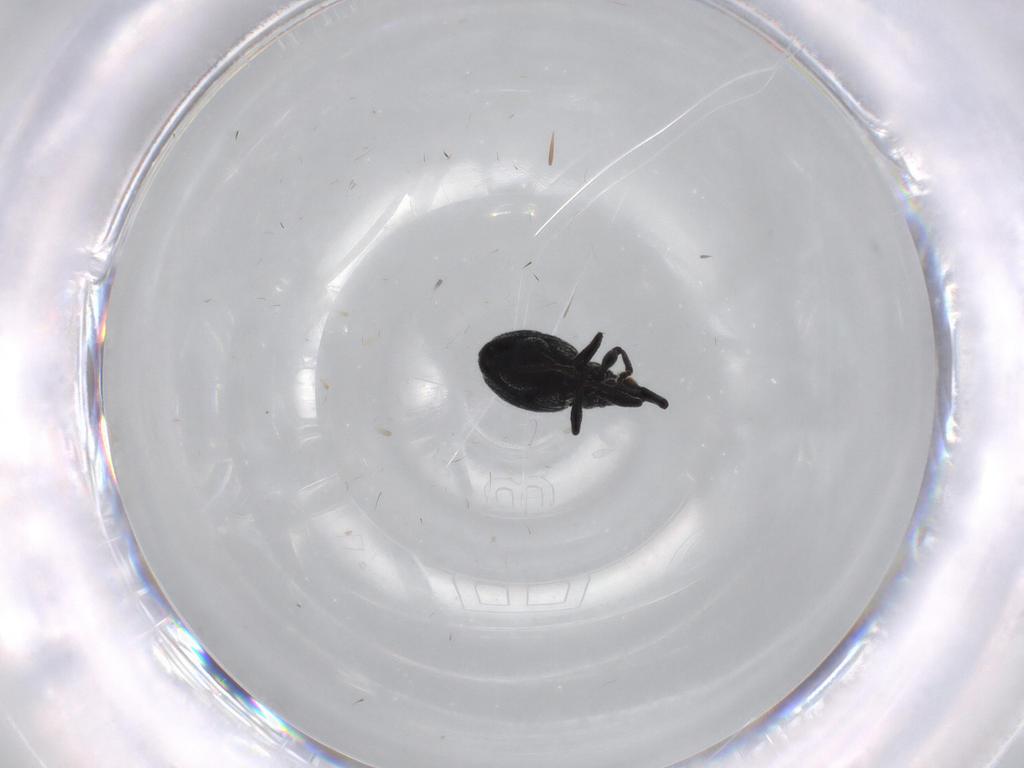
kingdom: Animalia
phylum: Arthropoda
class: Insecta
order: Coleoptera
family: Brentidae
